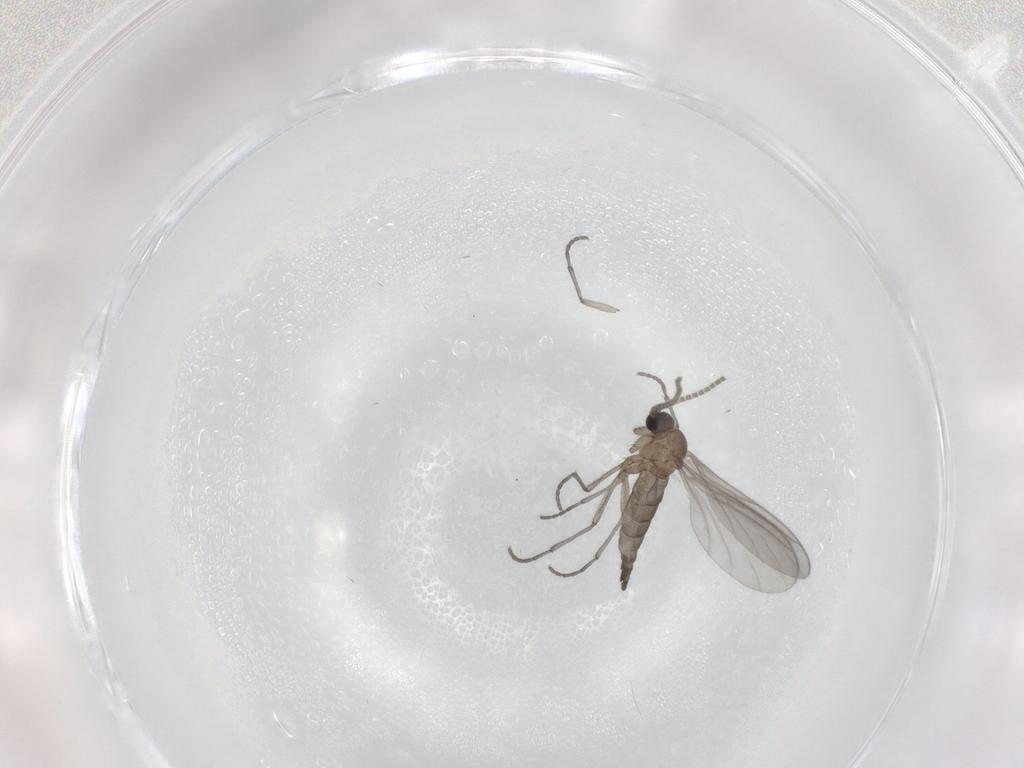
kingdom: Animalia
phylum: Arthropoda
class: Insecta
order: Diptera
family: Sciaridae
